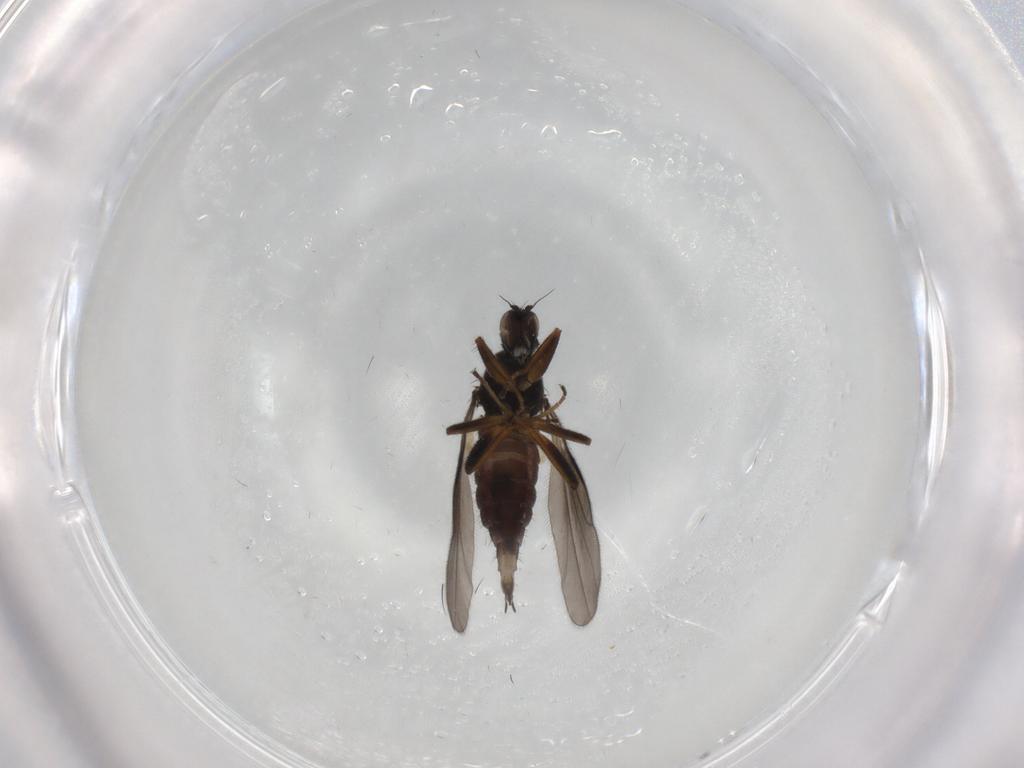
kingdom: Animalia
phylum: Arthropoda
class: Insecta
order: Diptera
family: Hybotidae
